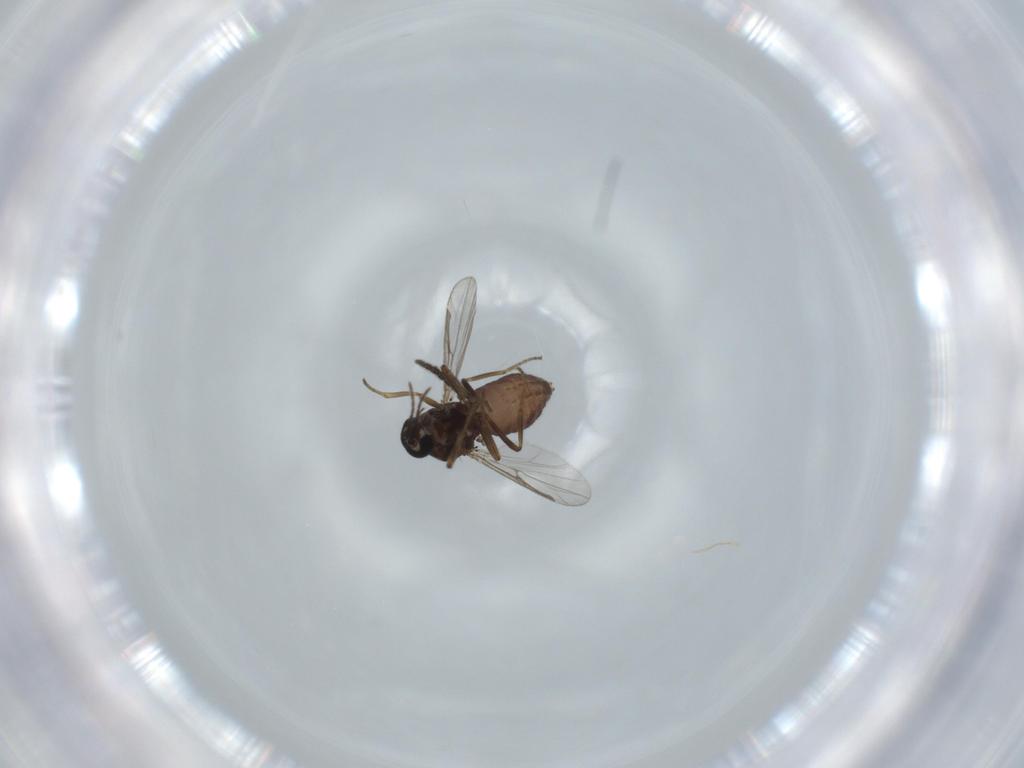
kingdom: Animalia
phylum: Arthropoda
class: Insecta
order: Diptera
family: Ceratopogonidae
